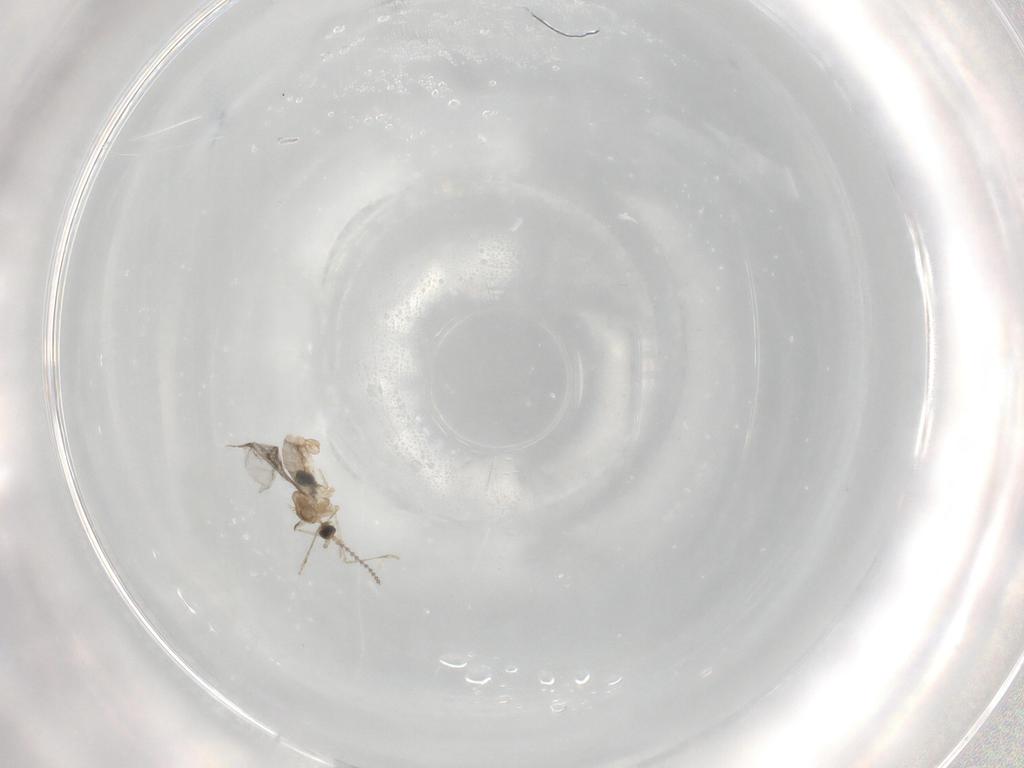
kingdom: Animalia
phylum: Arthropoda
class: Insecta
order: Diptera
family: Cecidomyiidae
